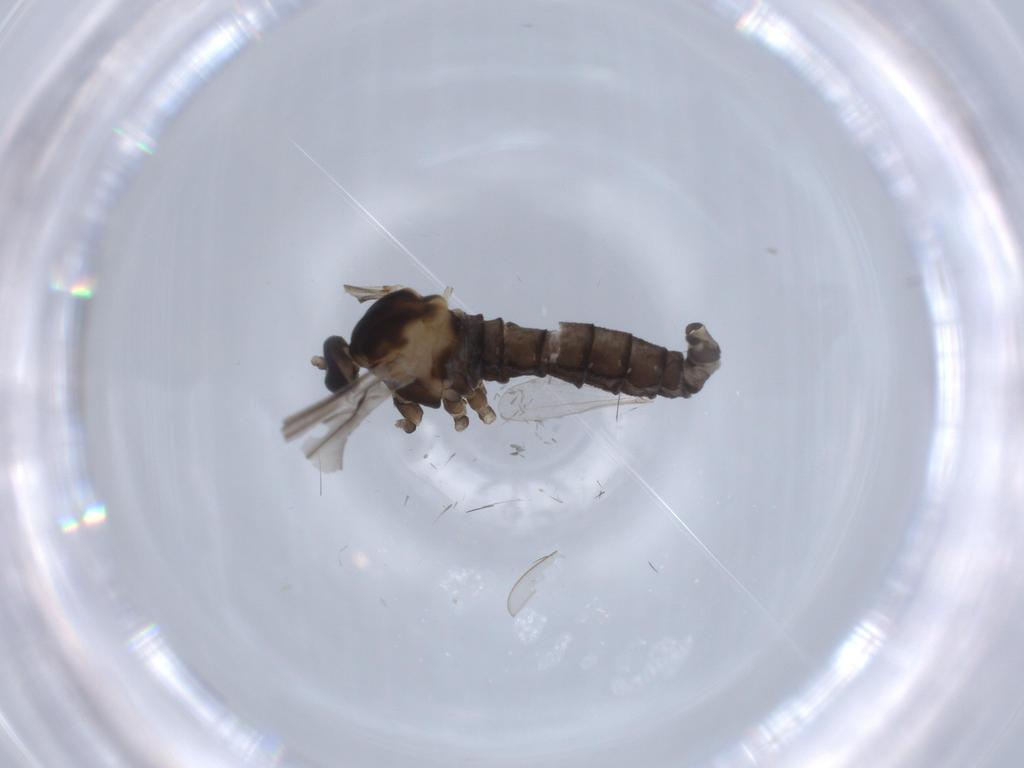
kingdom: Animalia
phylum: Arthropoda
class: Insecta
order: Diptera
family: Cecidomyiidae
